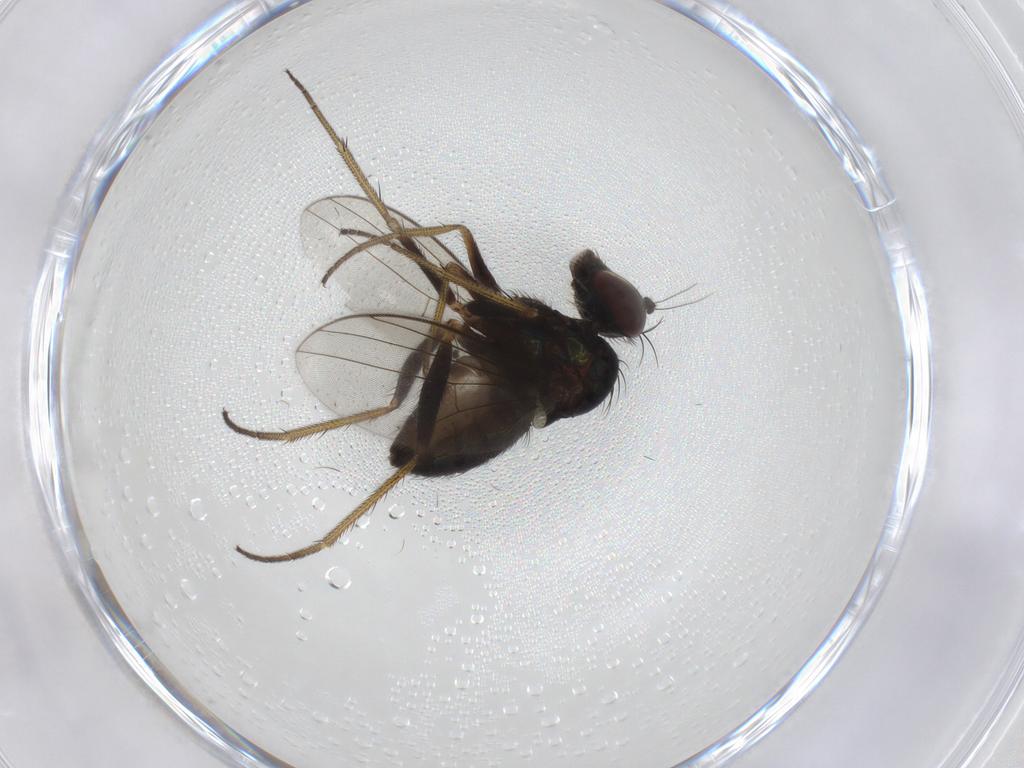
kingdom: Animalia
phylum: Arthropoda
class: Insecta
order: Diptera
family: Dolichopodidae
